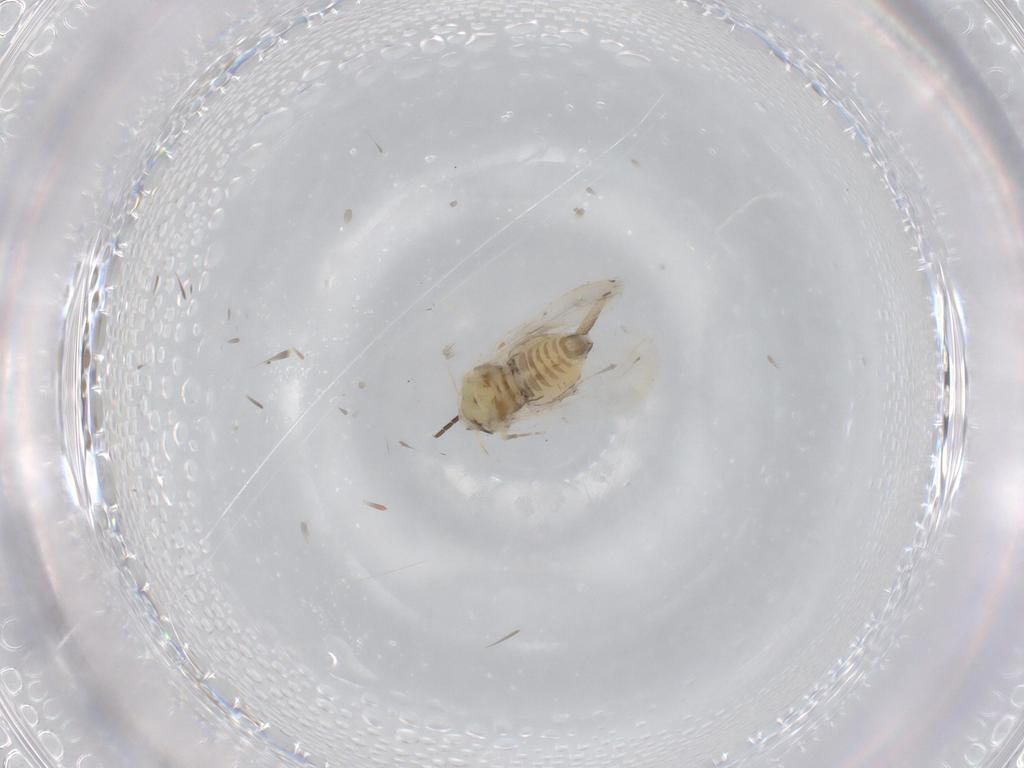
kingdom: Animalia
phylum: Arthropoda
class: Insecta
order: Hemiptera
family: Aleyrodidae
